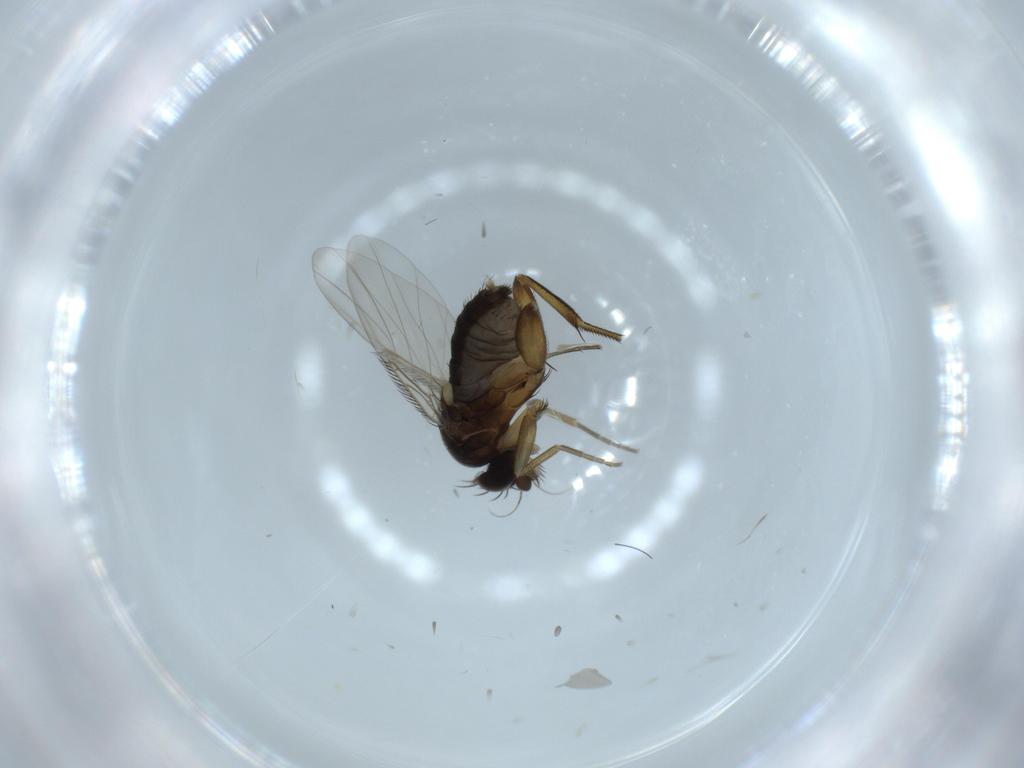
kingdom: Animalia
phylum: Arthropoda
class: Insecta
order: Diptera
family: Phoridae
